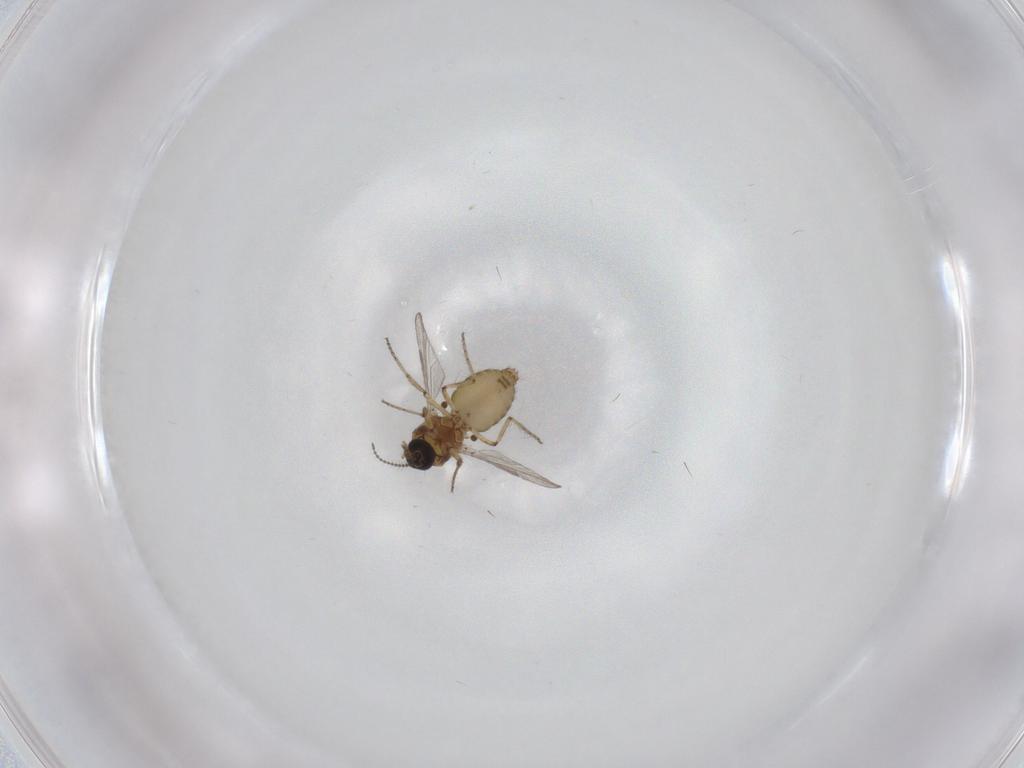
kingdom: Animalia
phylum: Arthropoda
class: Insecta
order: Diptera
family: Ceratopogonidae
